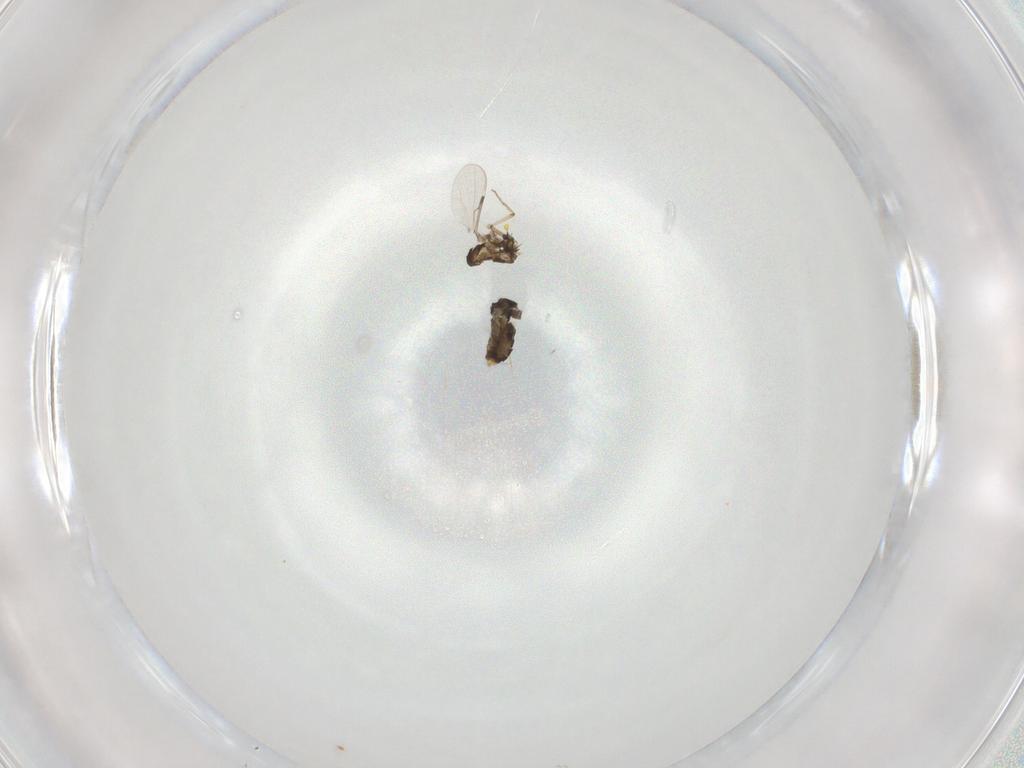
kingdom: Animalia
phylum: Arthropoda
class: Insecta
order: Diptera
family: Ceratopogonidae
